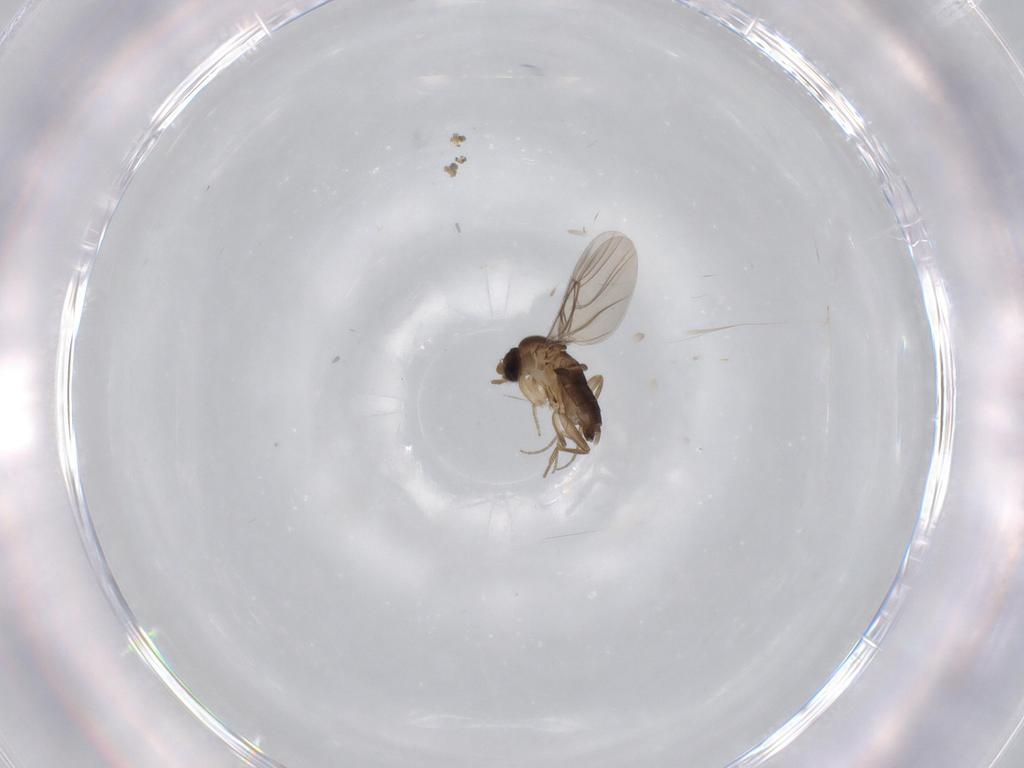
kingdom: Animalia
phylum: Arthropoda
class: Insecta
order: Diptera
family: Phoridae
